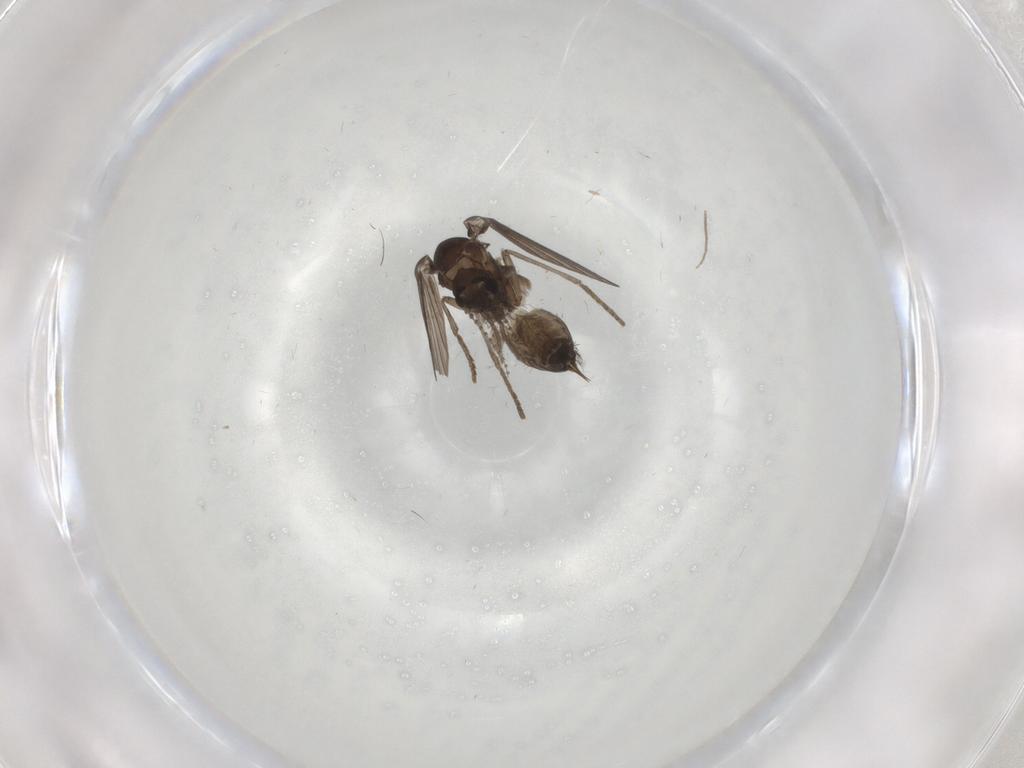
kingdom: Animalia
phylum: Arthropoda
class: Insecta
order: Diptera
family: Psychodidae
